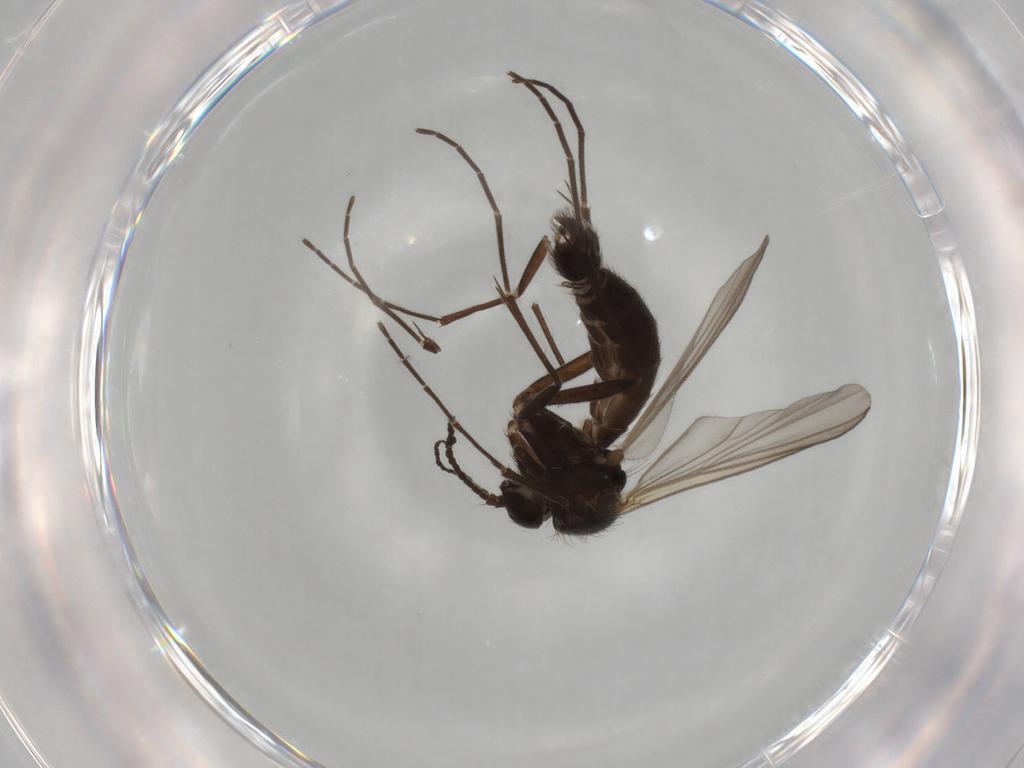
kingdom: Animalia
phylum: Arthropoda
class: Insecta
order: Diptera
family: Mycetophilidae
